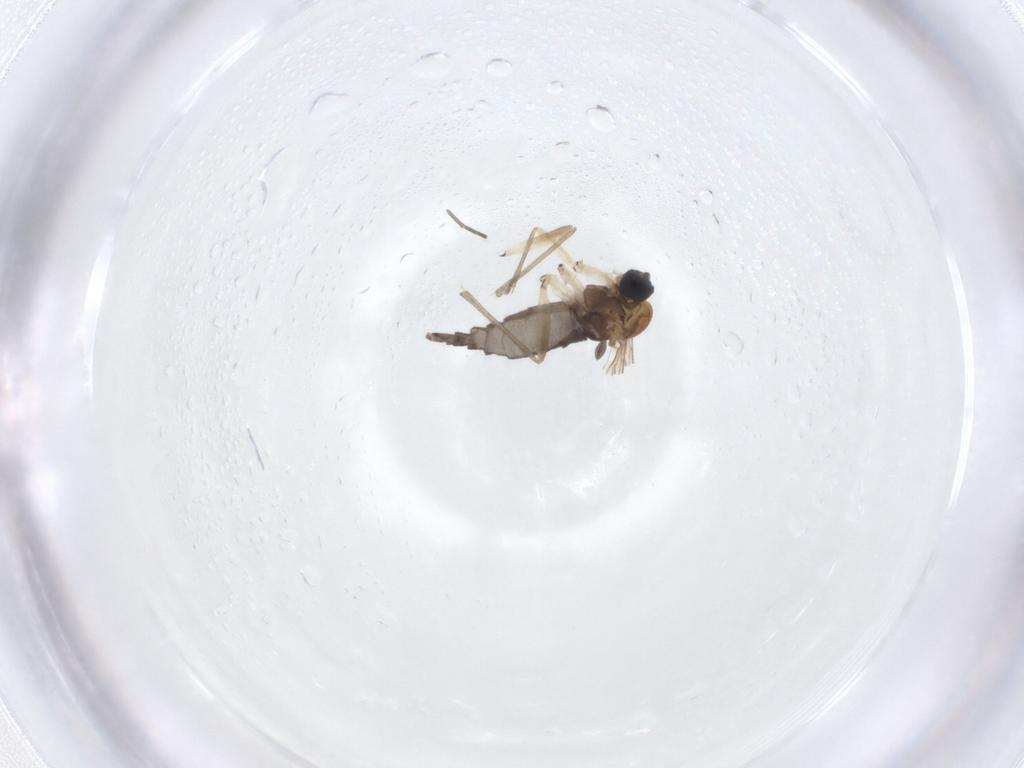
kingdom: Animalia
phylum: Arthropoda
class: Insecta
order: Diptera
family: Sciaridae
